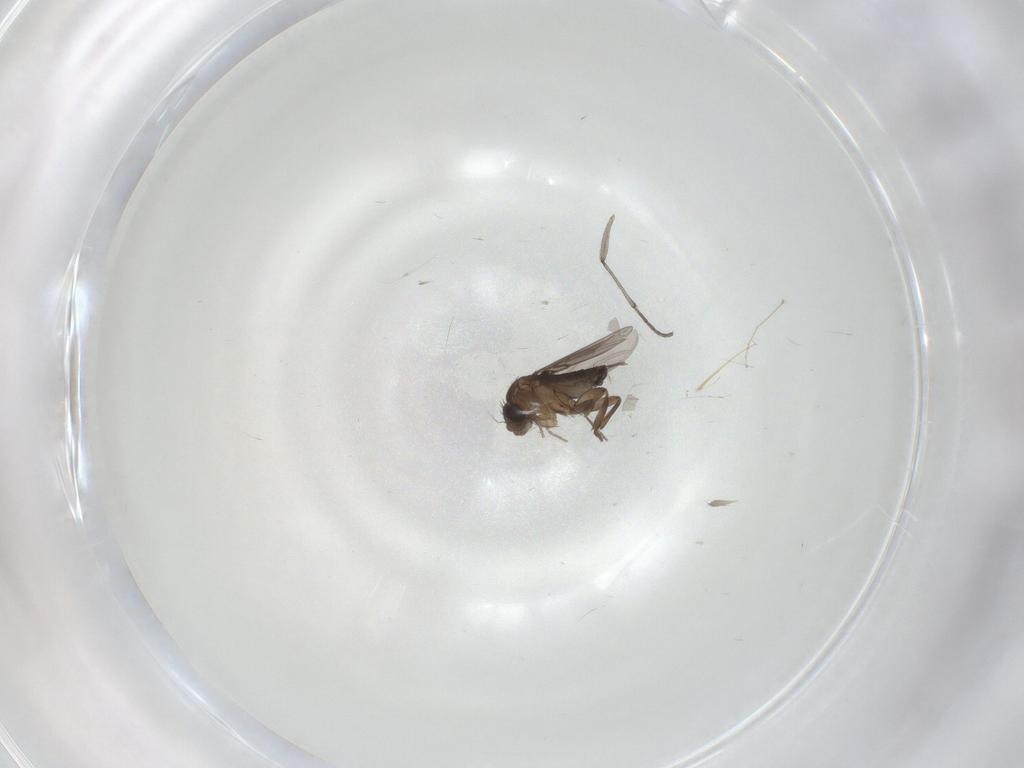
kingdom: Animalia
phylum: Arthropoda
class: Insecta
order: Diptera
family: Phoridae
